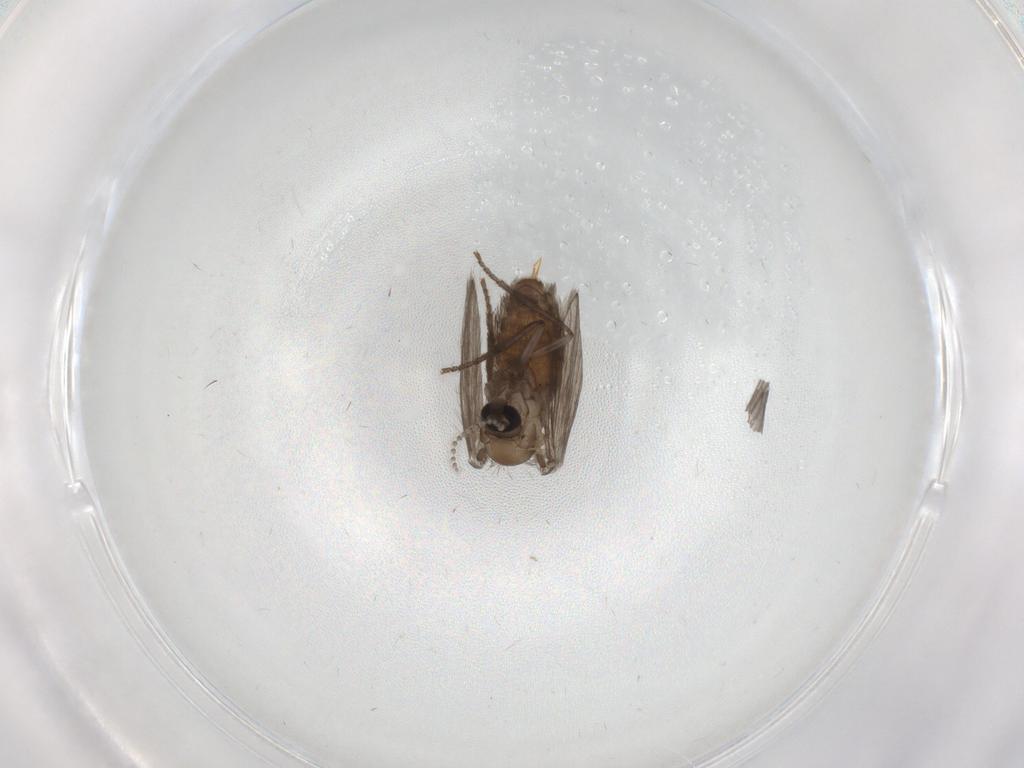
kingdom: Animalia
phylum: Arthropoda
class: Insecta
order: Diptera
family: Psychodidae
